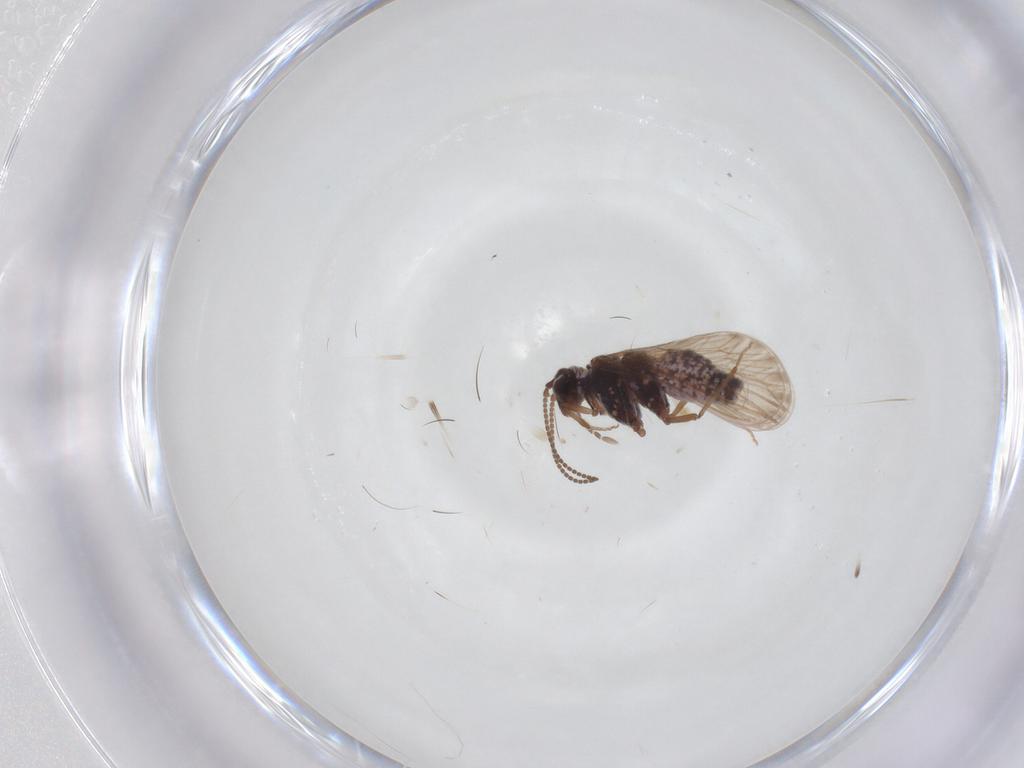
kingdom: Animalia
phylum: Arthropoda
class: Insecta
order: Neuroptera
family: Coniopterygidae
